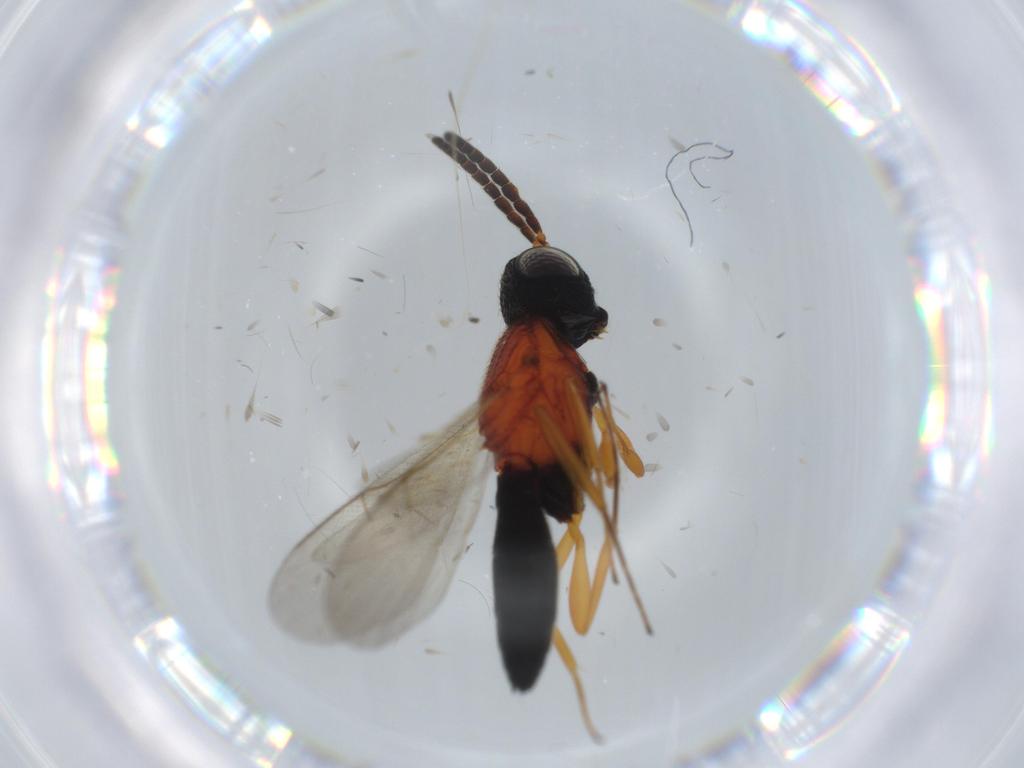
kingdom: Animalia
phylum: Arthropoda
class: Insecta
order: Hymenoptera
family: Scelionidae
